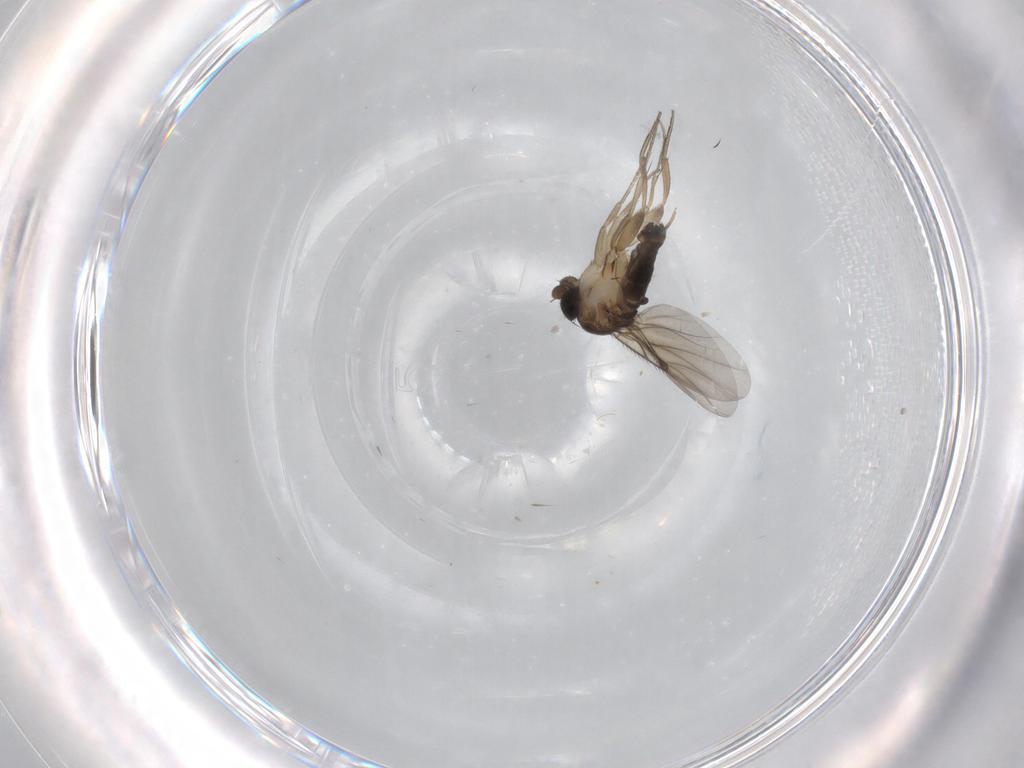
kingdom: Animalia
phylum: Arthropoda
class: Insecta
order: Diptera
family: Phoridae
